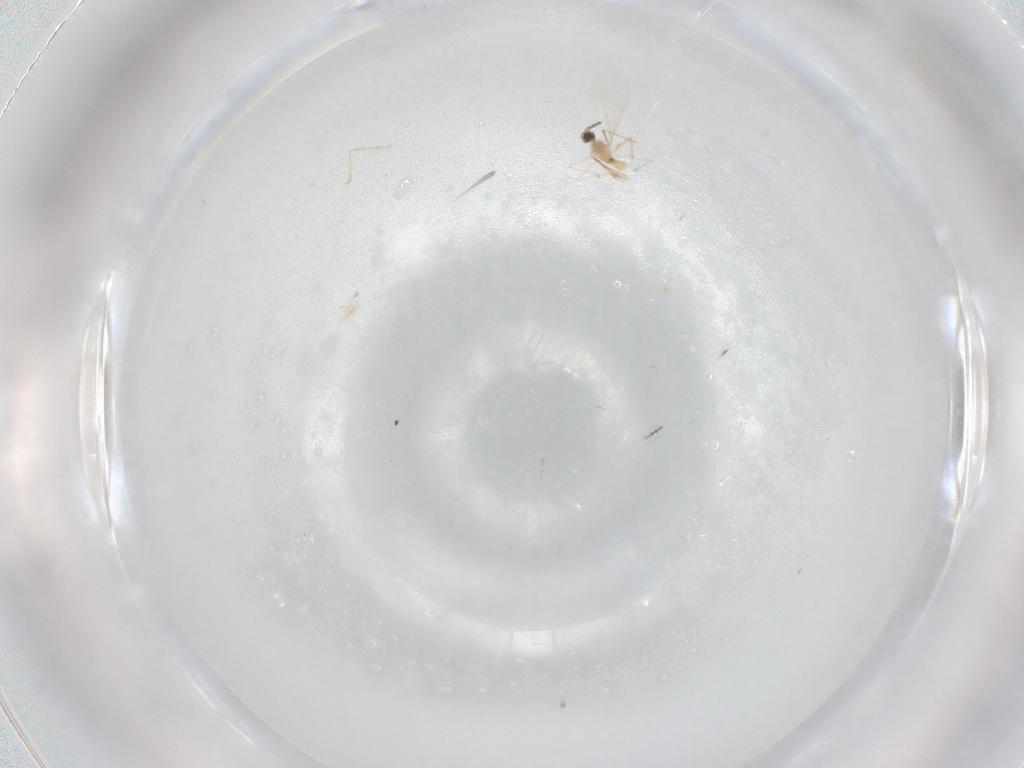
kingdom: Animalia
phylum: Arthropoda
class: Insecta
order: Diptera
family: Cecidomyiidae
